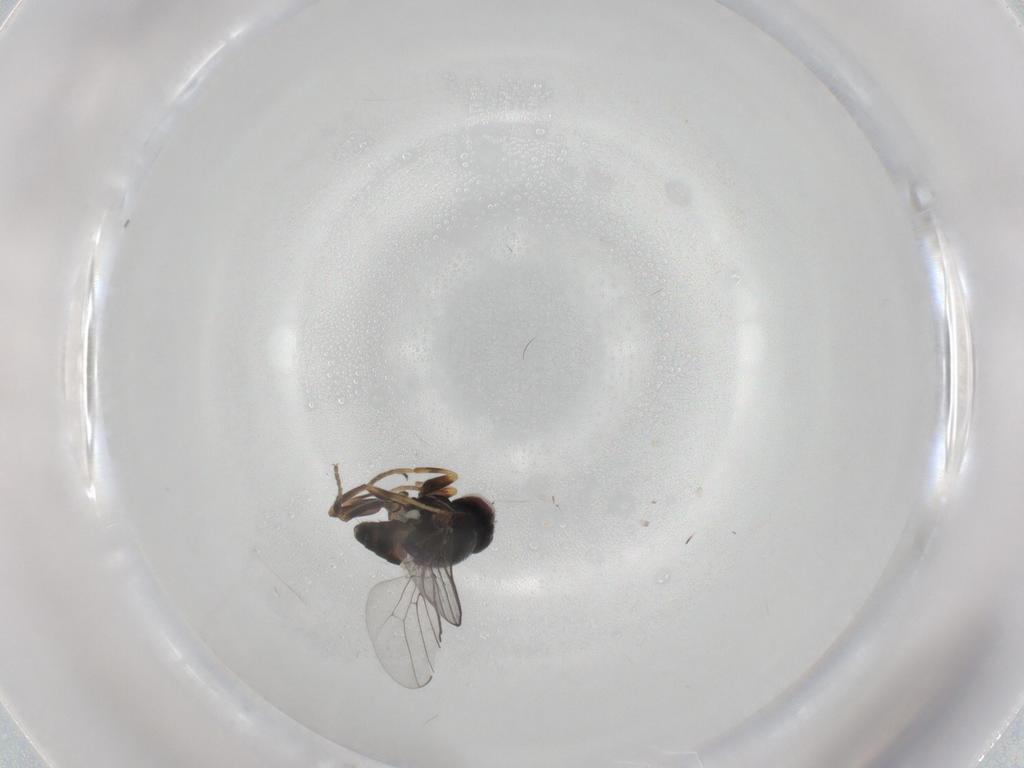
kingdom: Animalia
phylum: Arthropoda
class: Insecta
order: Diptera
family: Chloropidae
